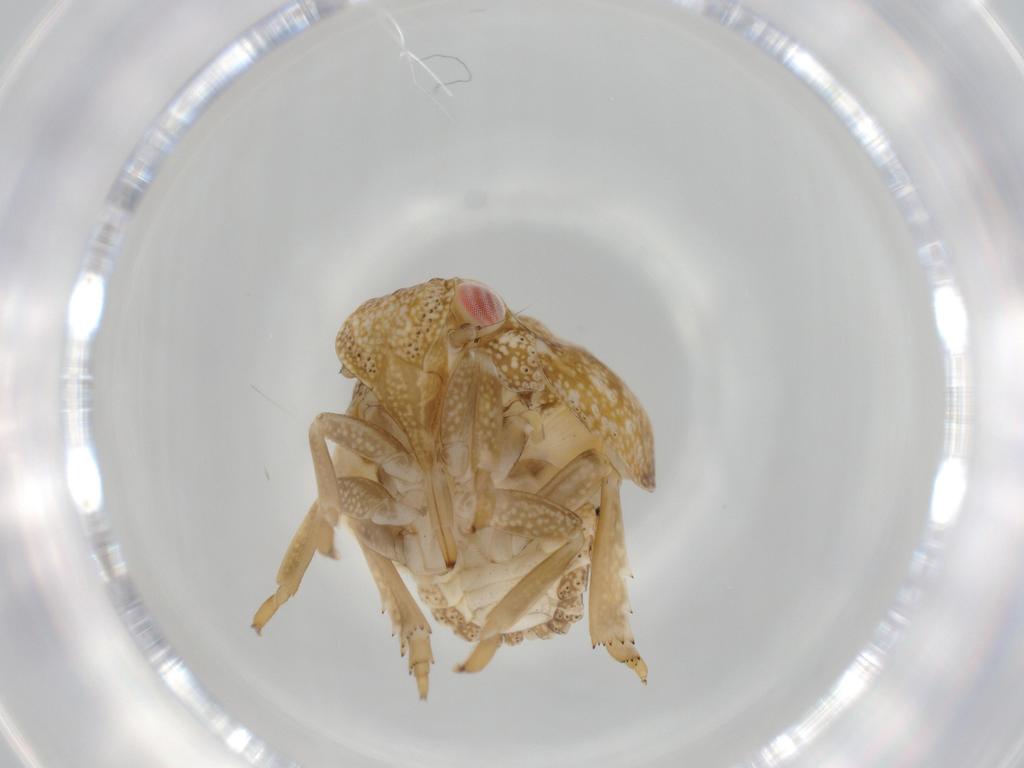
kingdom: Animalia
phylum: Arthropoda
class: Insecta
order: Hemiptera
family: Acanaloniidae
